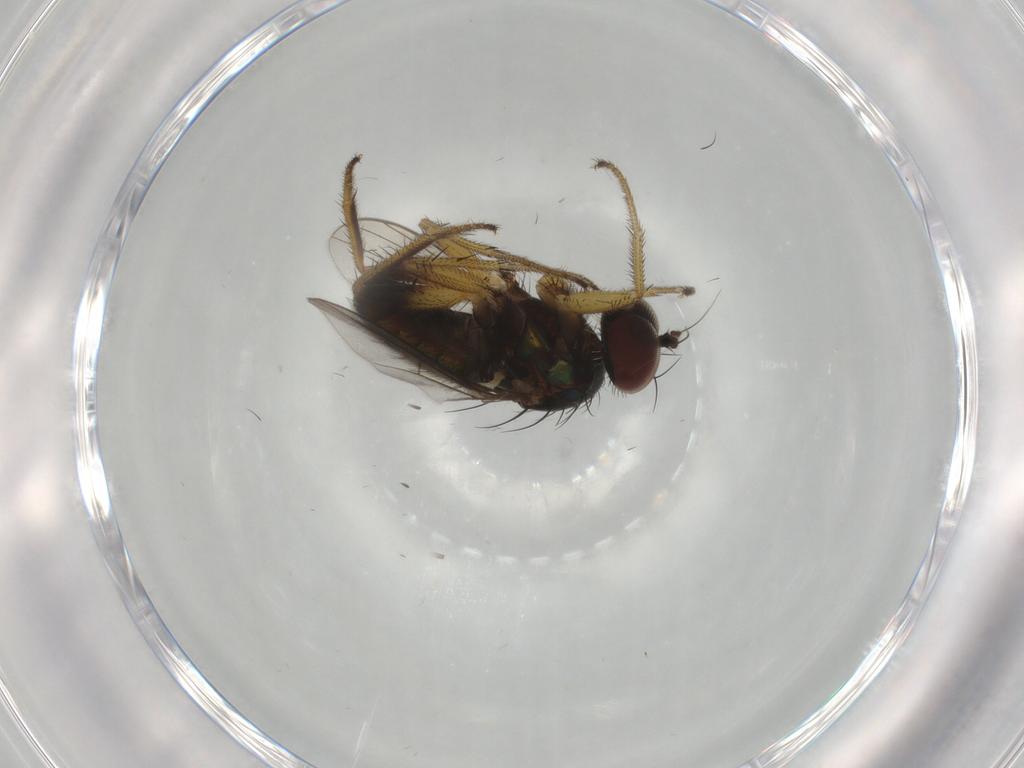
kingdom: Animalia
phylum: Arthropoda
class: Insecta
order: Diptera
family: Dolichopodidae
